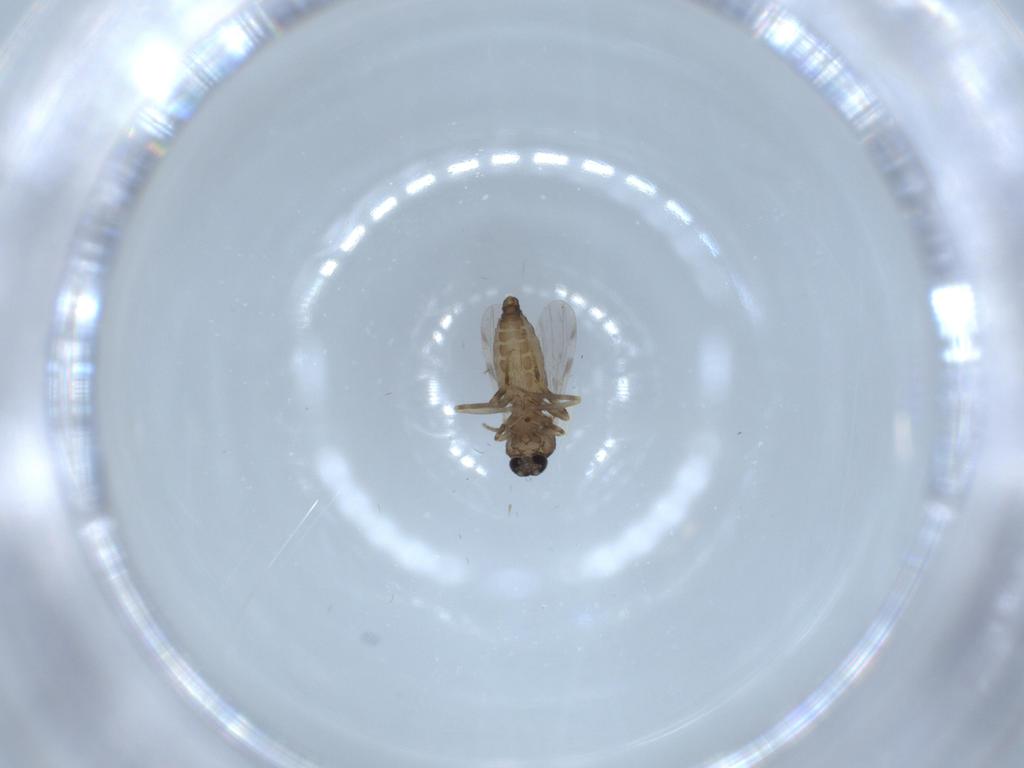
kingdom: Animalia
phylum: Arthropoda
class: Insecta
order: Diptera
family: Ceratopogonidae
